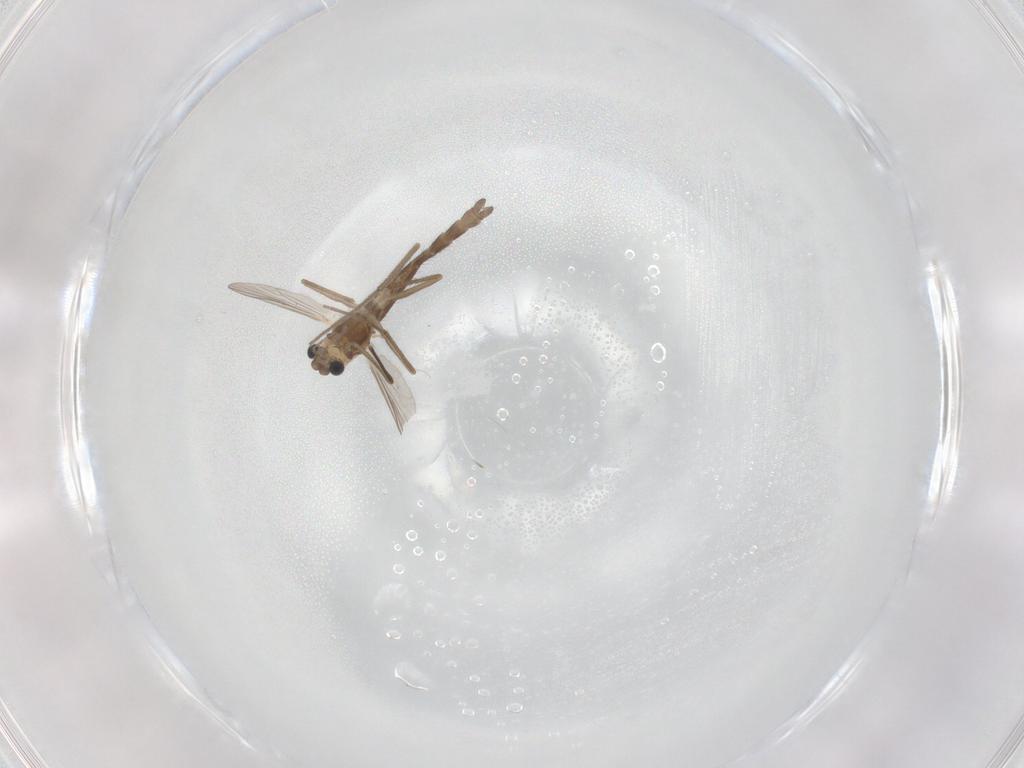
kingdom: Animalia
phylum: Arthropoda
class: Insecta
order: Diptera
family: Chironomidae
